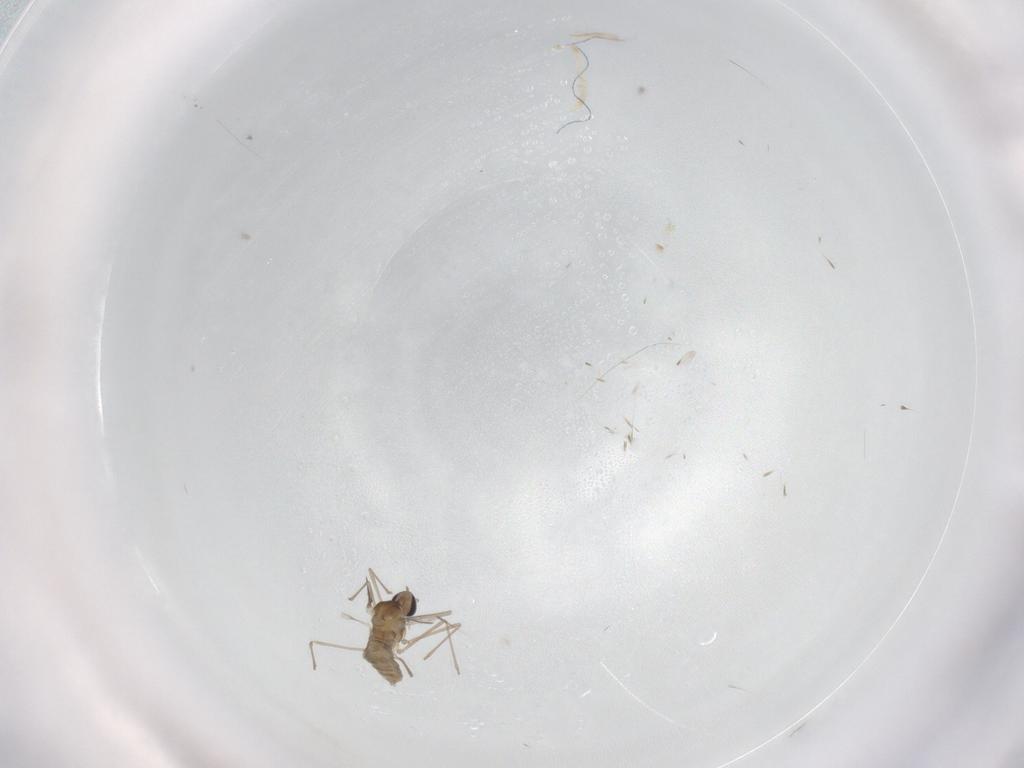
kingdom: Animalia
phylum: Arthropoda
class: Insecta
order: Diptera
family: Cecidomyiidae
